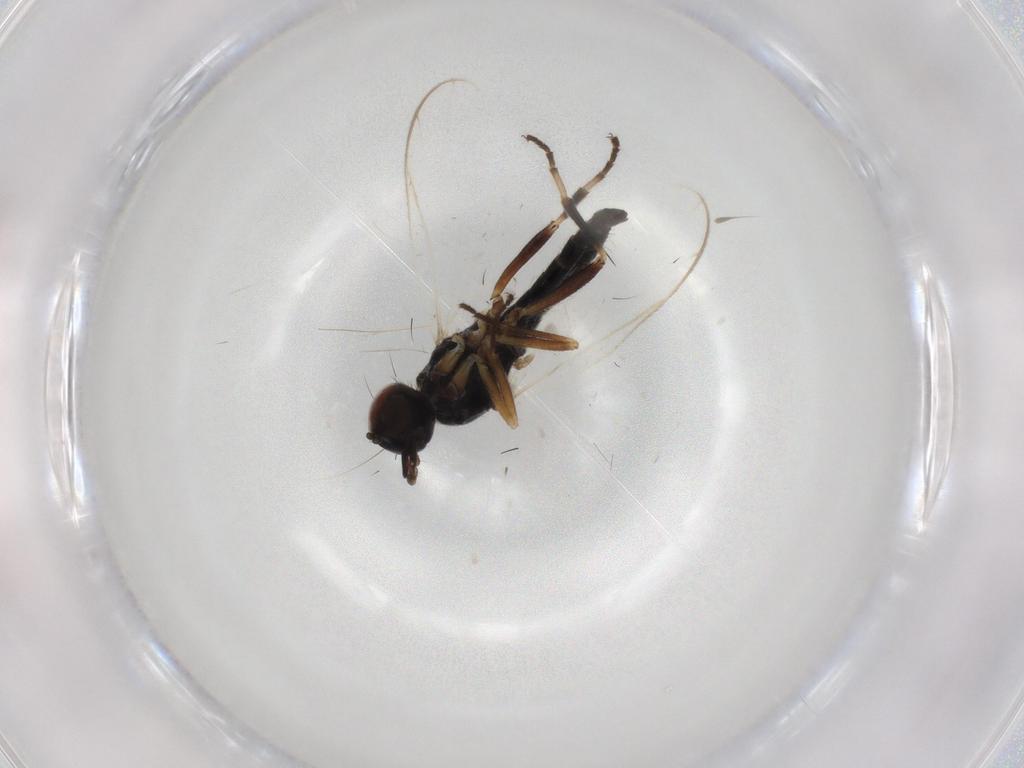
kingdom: Animalia
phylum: Arthropoda
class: Insecta
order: Diptera
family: Hybotidae
